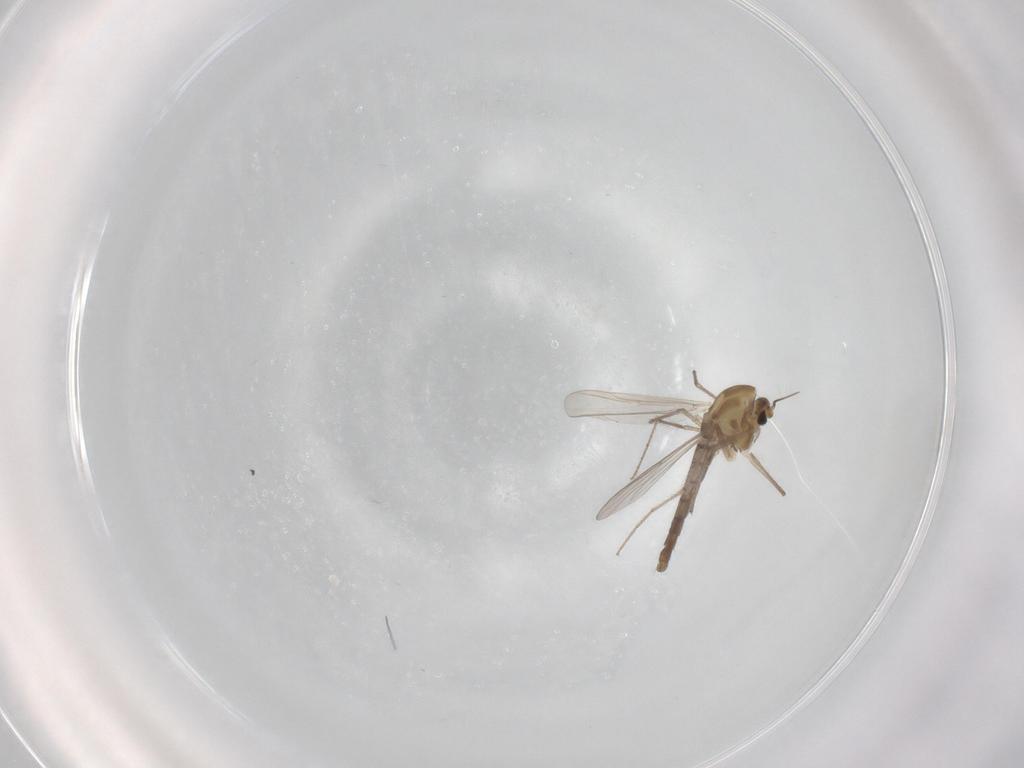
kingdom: Animalia
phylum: Arthropoda
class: Insecta
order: Diptera
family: Chironomidae
